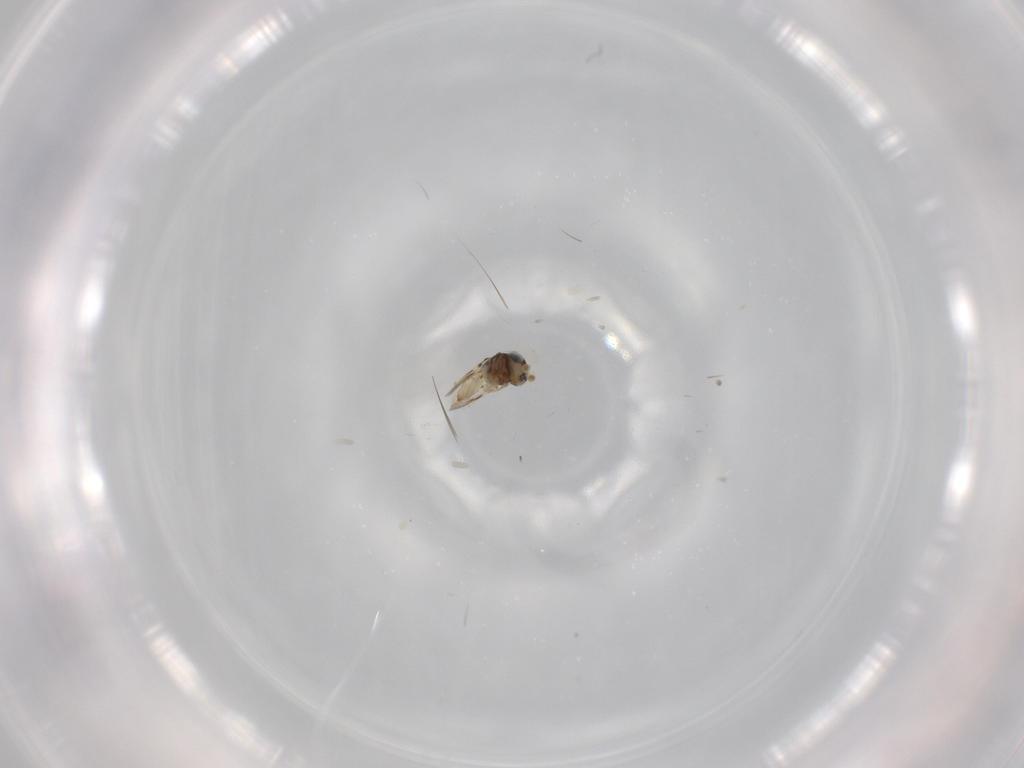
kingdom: Animalia
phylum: Arthropoda
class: Insecta
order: Hymenoptera
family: Scelionidae
